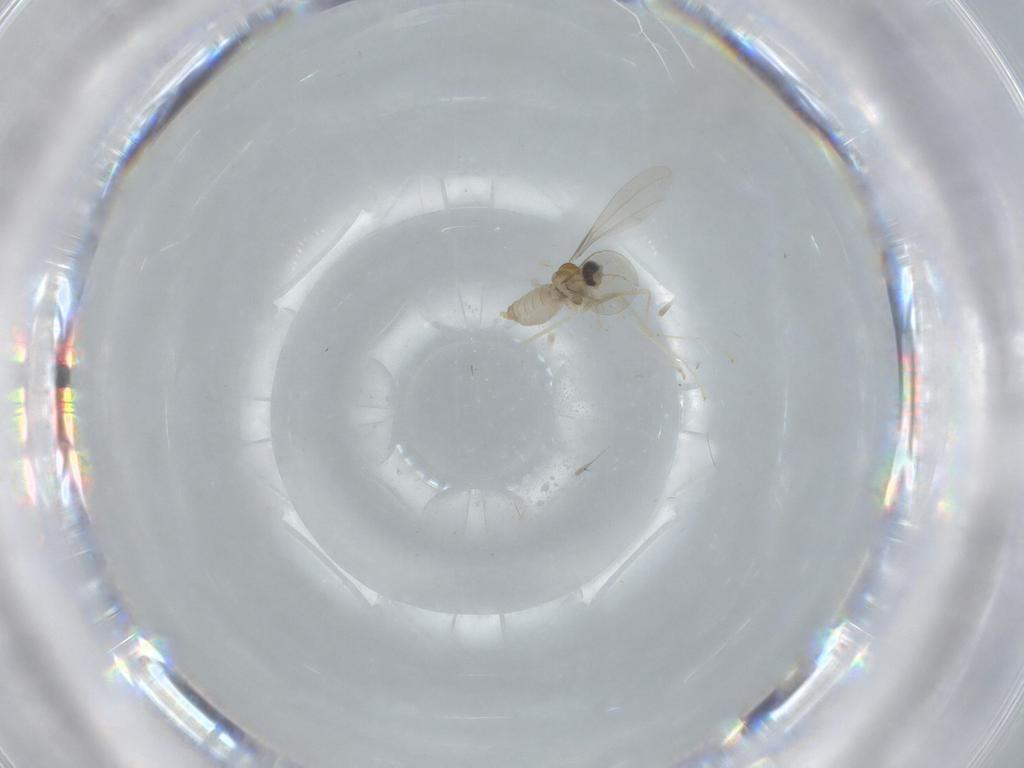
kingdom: Animalia
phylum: Arthropoda
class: Insecta
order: Diptera
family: Cecidomyiidae
